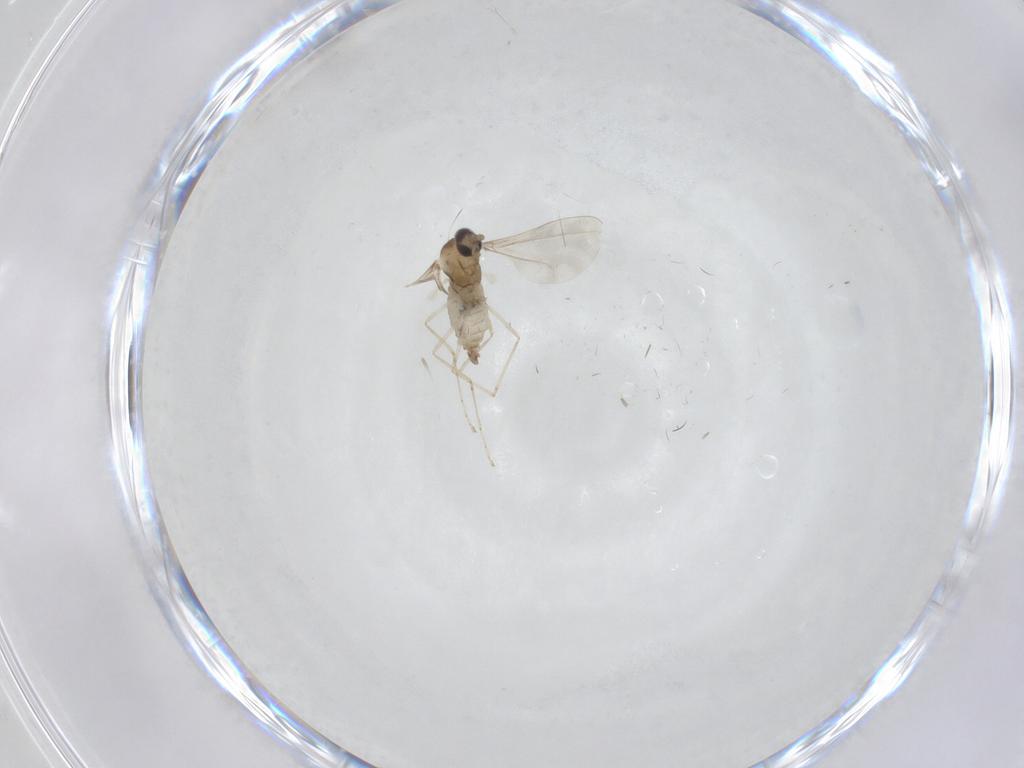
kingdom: Animalia
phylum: Arthropoda
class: Insecta
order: Diptera
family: Cecidomyiidae
